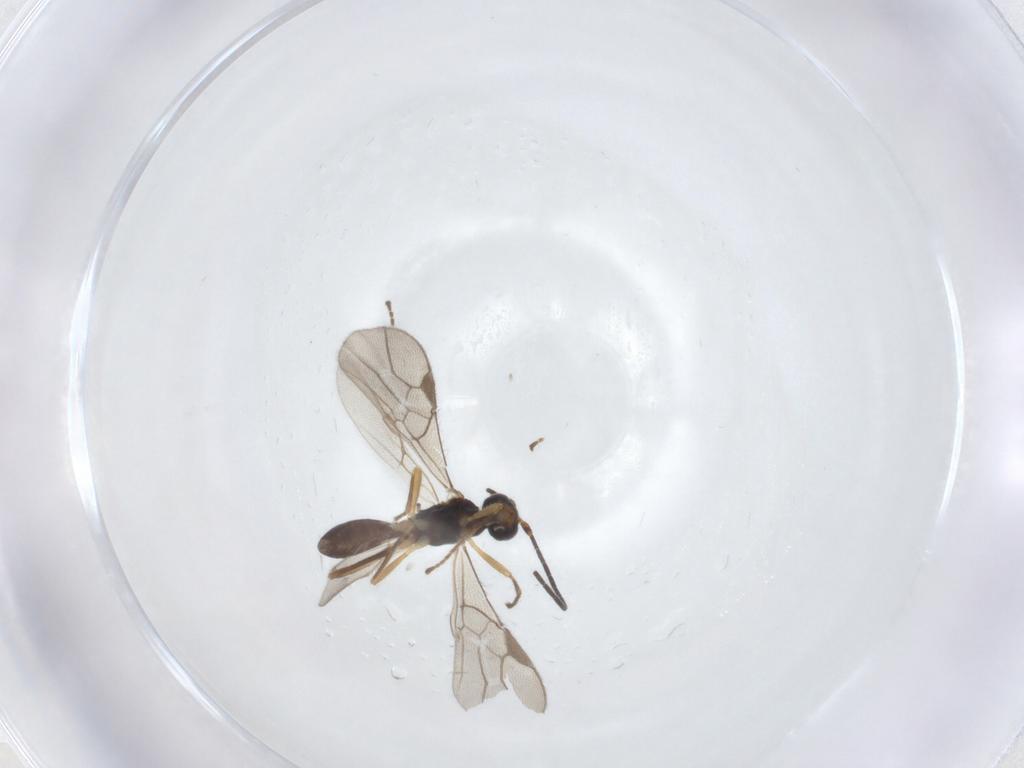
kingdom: Animalia
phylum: Arthropoda
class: Insecta
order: Hymenoptera
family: Braconidae
